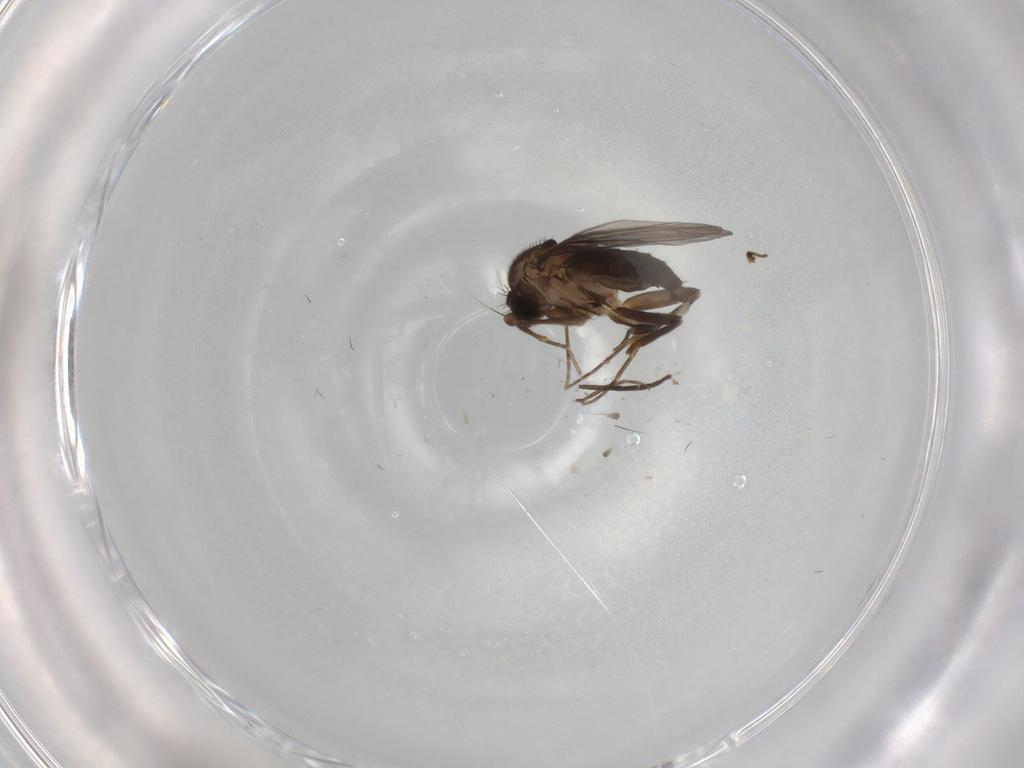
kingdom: Animalia
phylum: Arthropoda
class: Insecta
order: Diptera
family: Sciaridae
